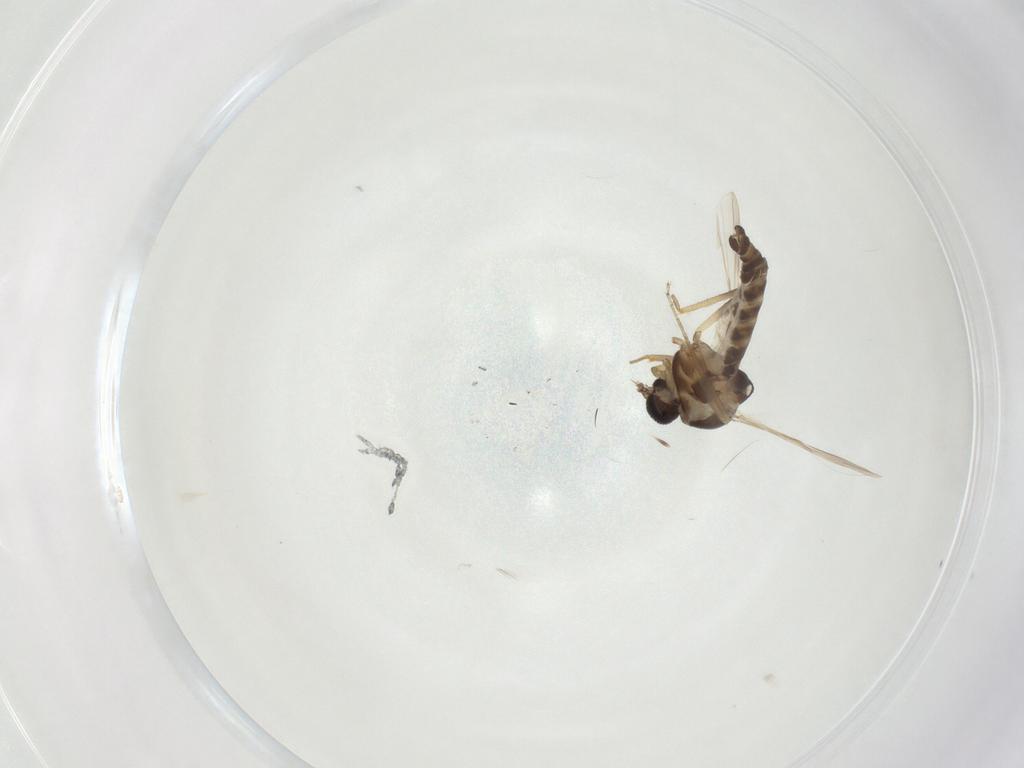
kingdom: Animalia
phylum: Arthropoda
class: Insecta
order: Diptera
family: Ceratopogonidae
